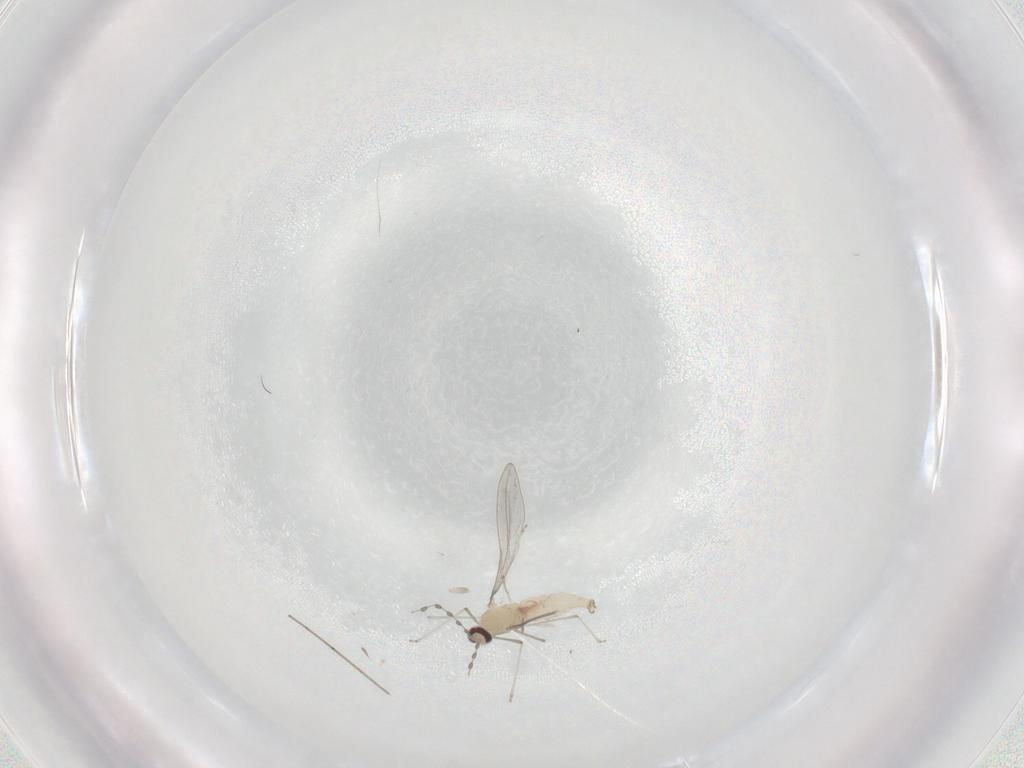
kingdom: Animalia
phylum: Arthropoda
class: Insecta
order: Diptera
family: Cecidomyiidae
